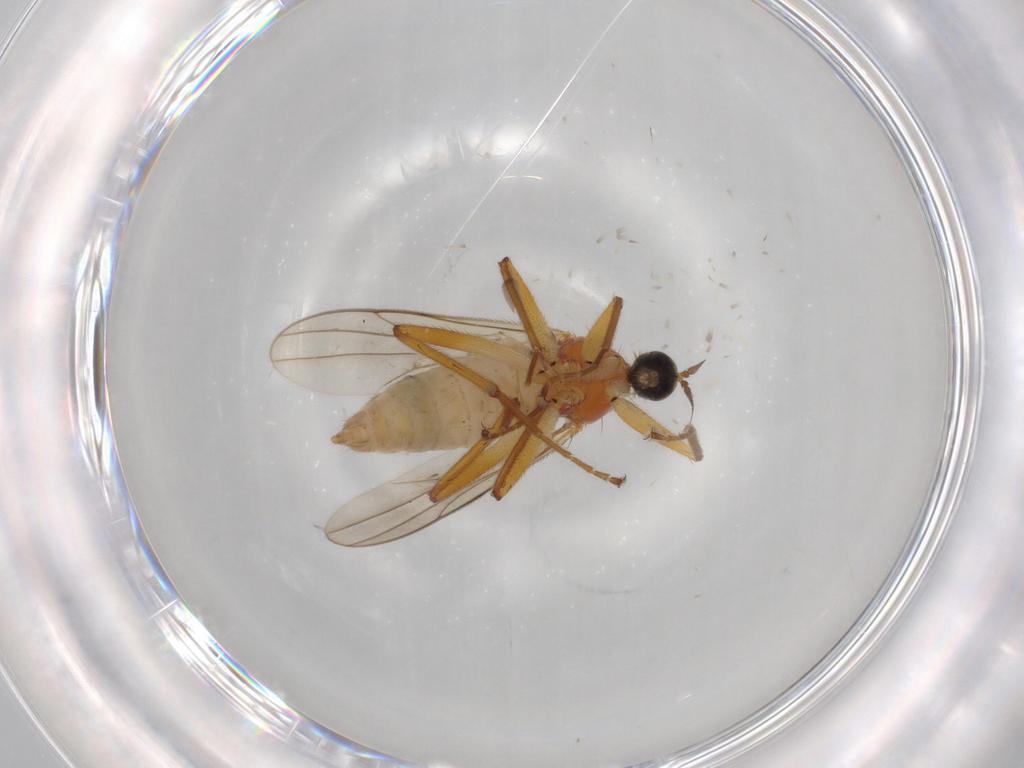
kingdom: Animalia
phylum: Arthropoda
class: Insecta
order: Diptera
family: Hybotidae
